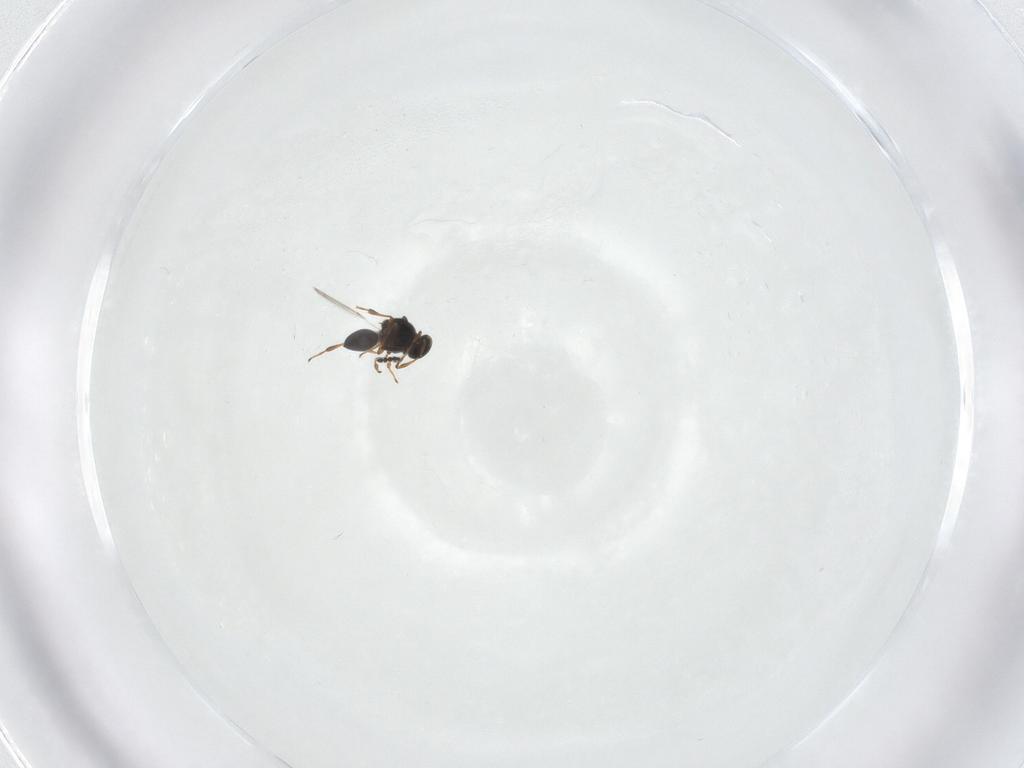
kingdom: Animalia
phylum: Arthropoda
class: Insecta
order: Hymenoptera
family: Platygastridae
